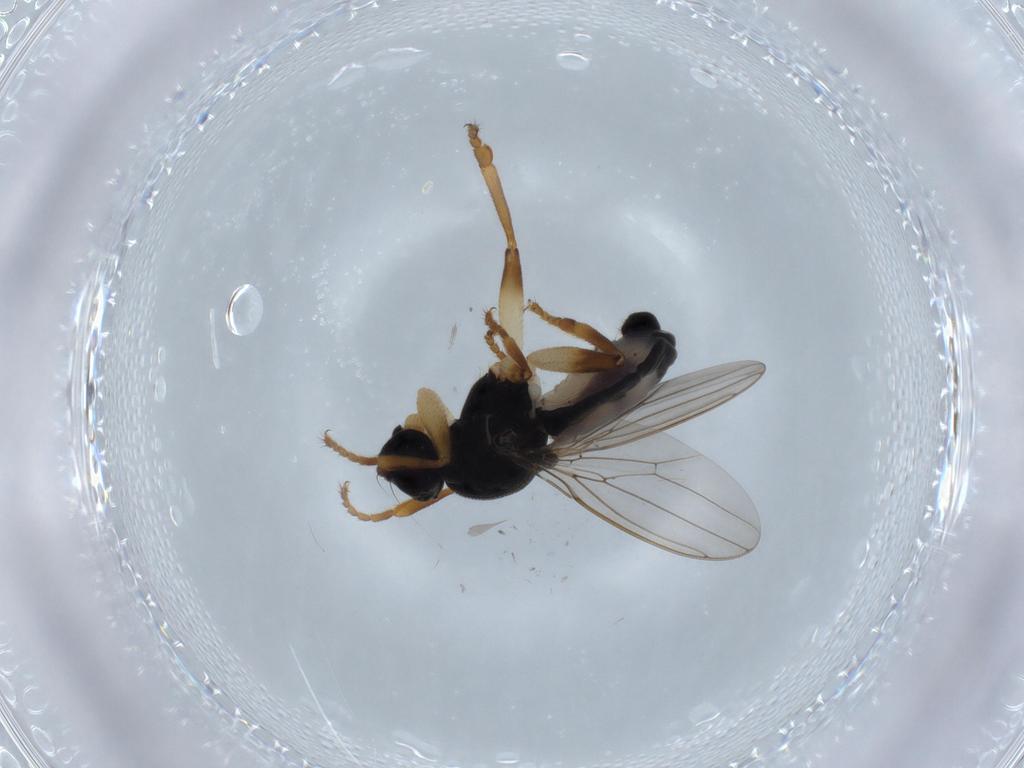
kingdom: Animalia
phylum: Arthropoda
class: Insecta
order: Diptera
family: Sphaeroceridae
